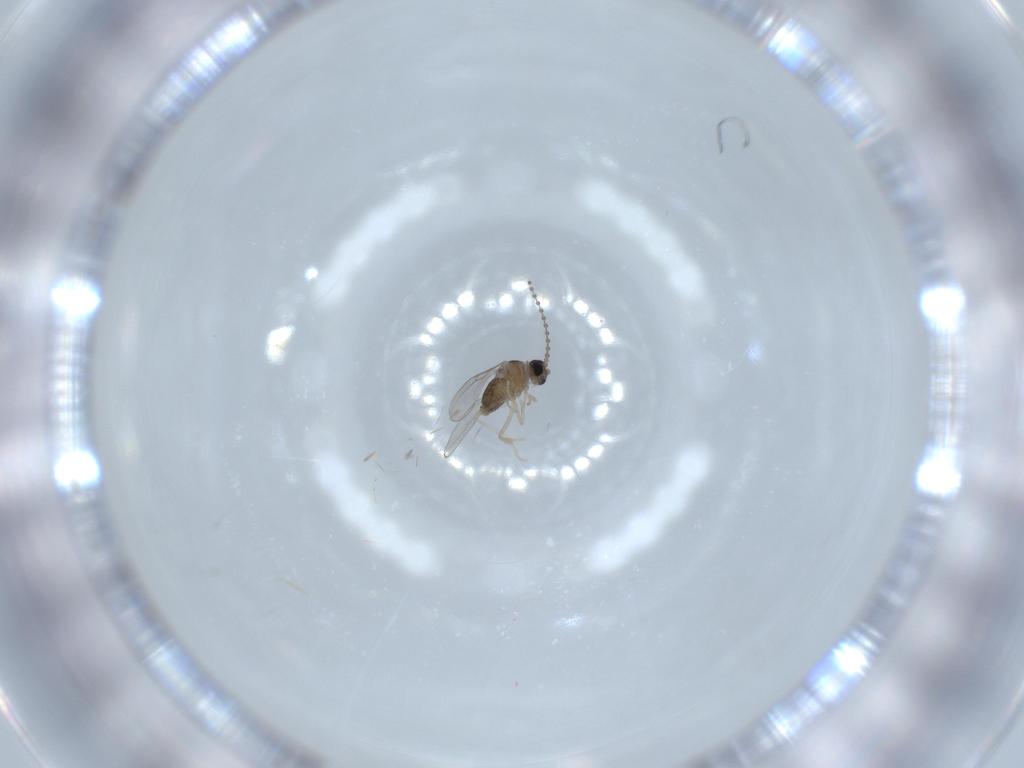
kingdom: Animalia
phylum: Arthropoda
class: Insecta
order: Diptera
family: Cecidomyiidae
